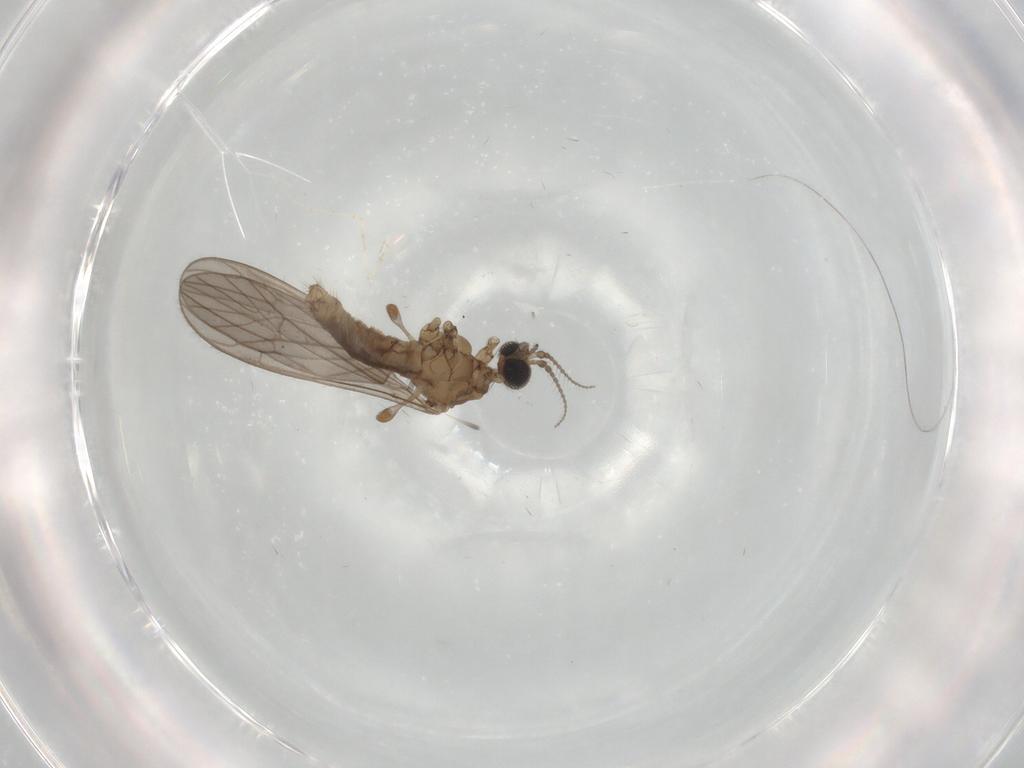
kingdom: Animalia
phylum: Arthropoda
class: Insecta
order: Diptera
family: Limoniidae
